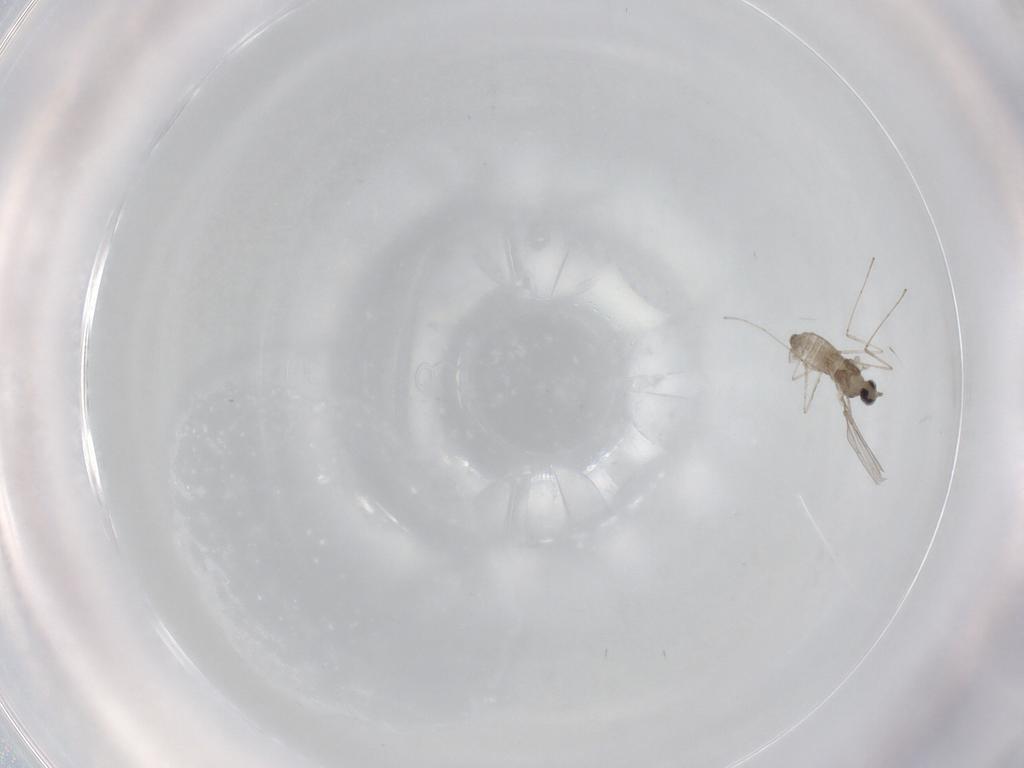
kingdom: Animalia
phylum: Arthropoda
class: Insecta
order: Diptera
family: Cecidomyiidae
